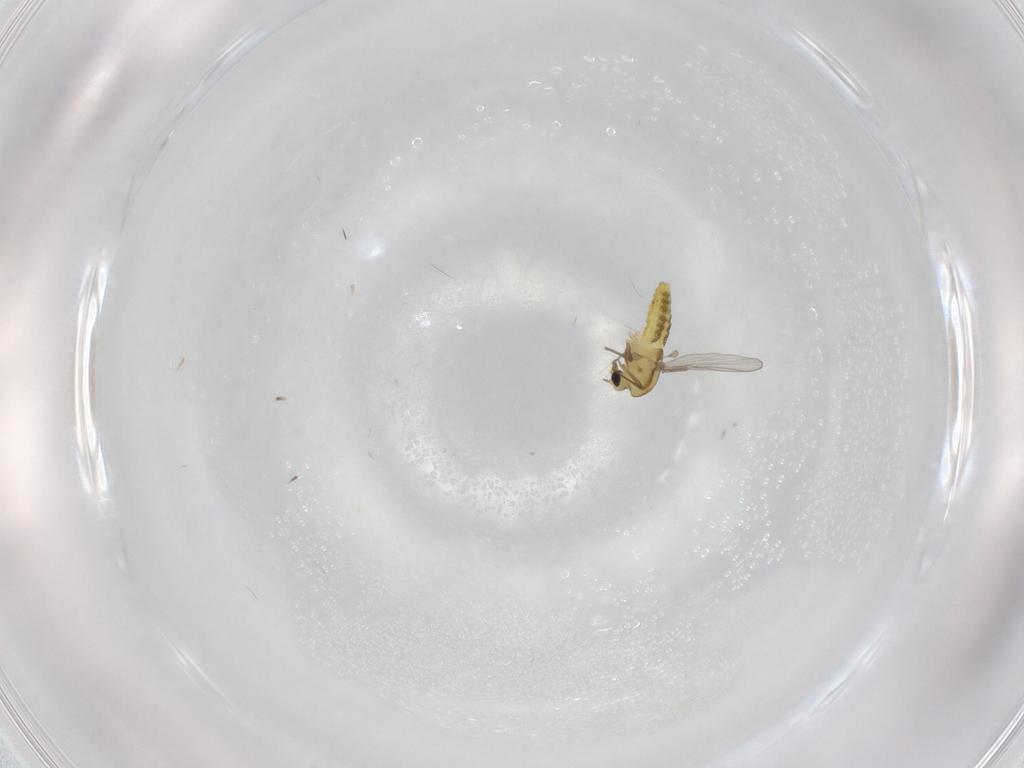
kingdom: Animalia
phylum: Arthropoda
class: Insecta
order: Diptera
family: Chironomidae
